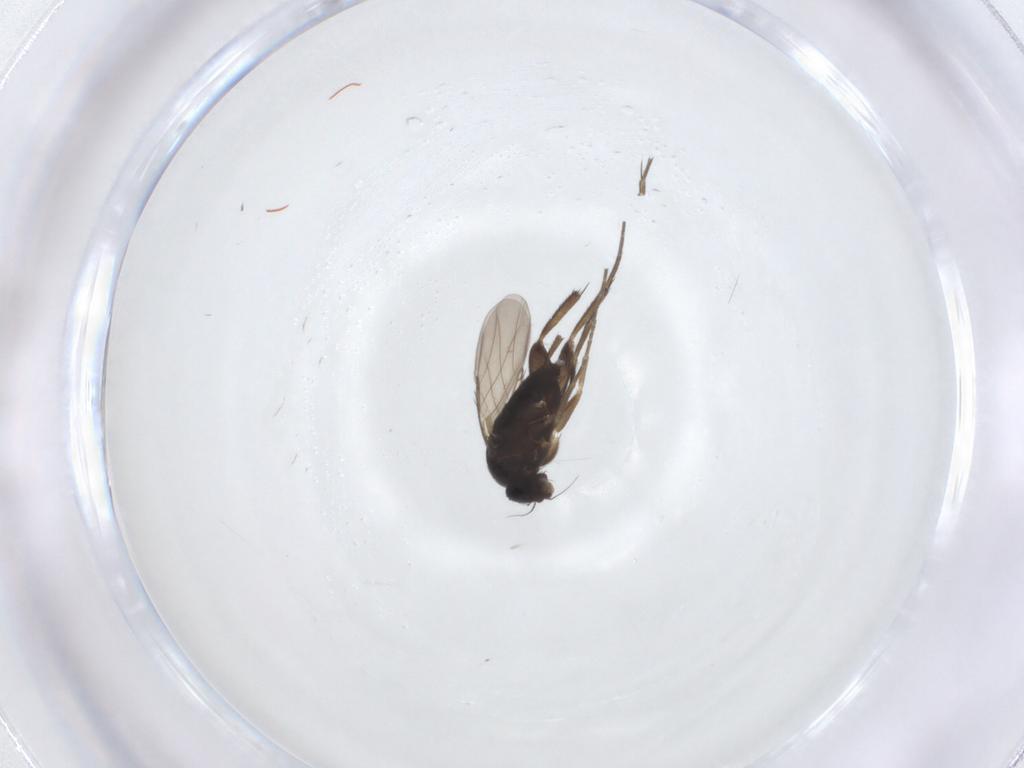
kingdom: Animalia
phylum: Arthropoda
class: Insecta
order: Diptera
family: Phoridae
